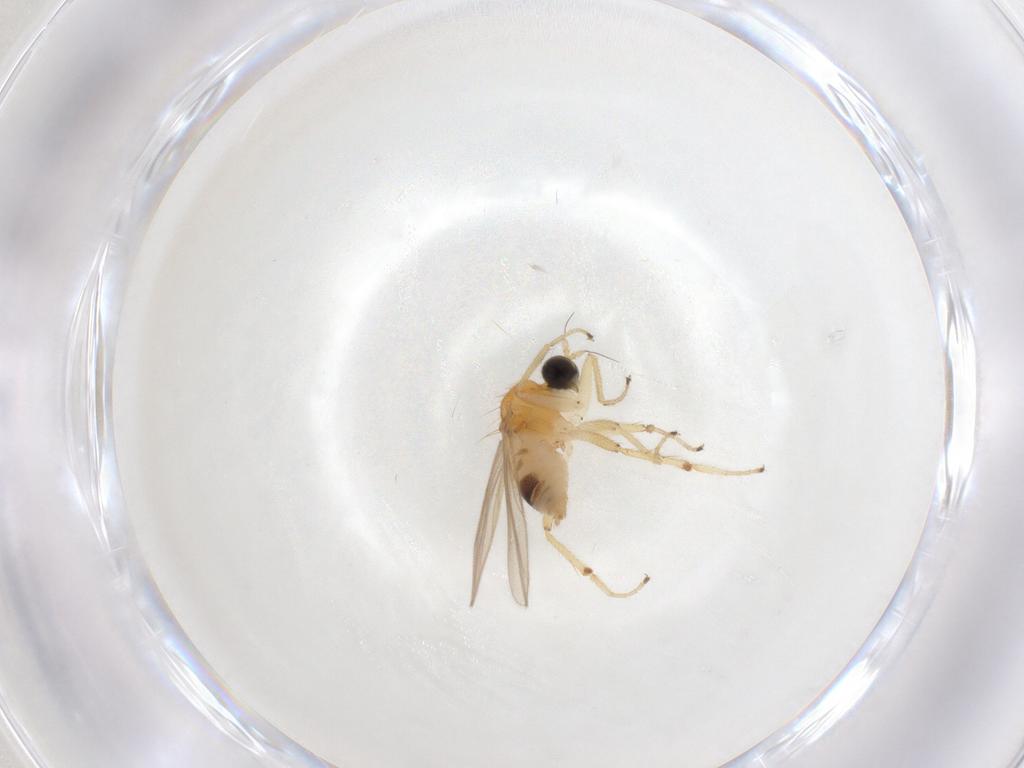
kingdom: Animalia
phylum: Arthropoda
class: Insecta
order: Diptera
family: Hybotidae
